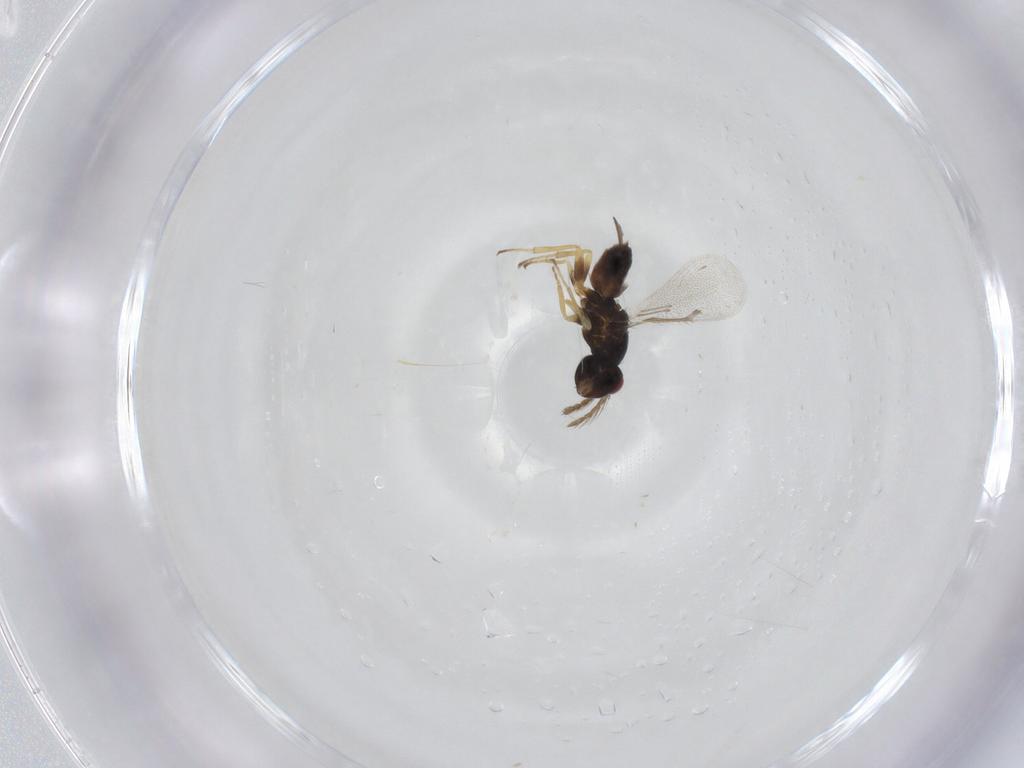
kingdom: Animalia
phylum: Arthropoda
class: Insecta
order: Hymenoptera
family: Eulophidae
